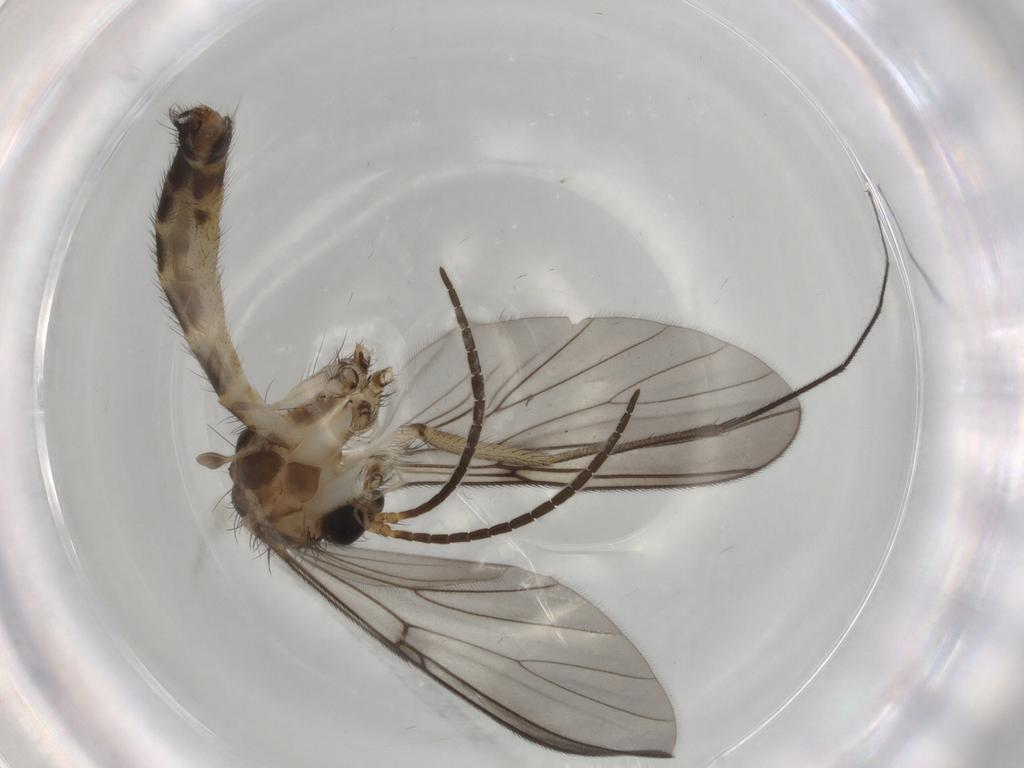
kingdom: Animalia
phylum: Arthropoda
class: Insecta
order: Diptera
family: Mycetophilidae
